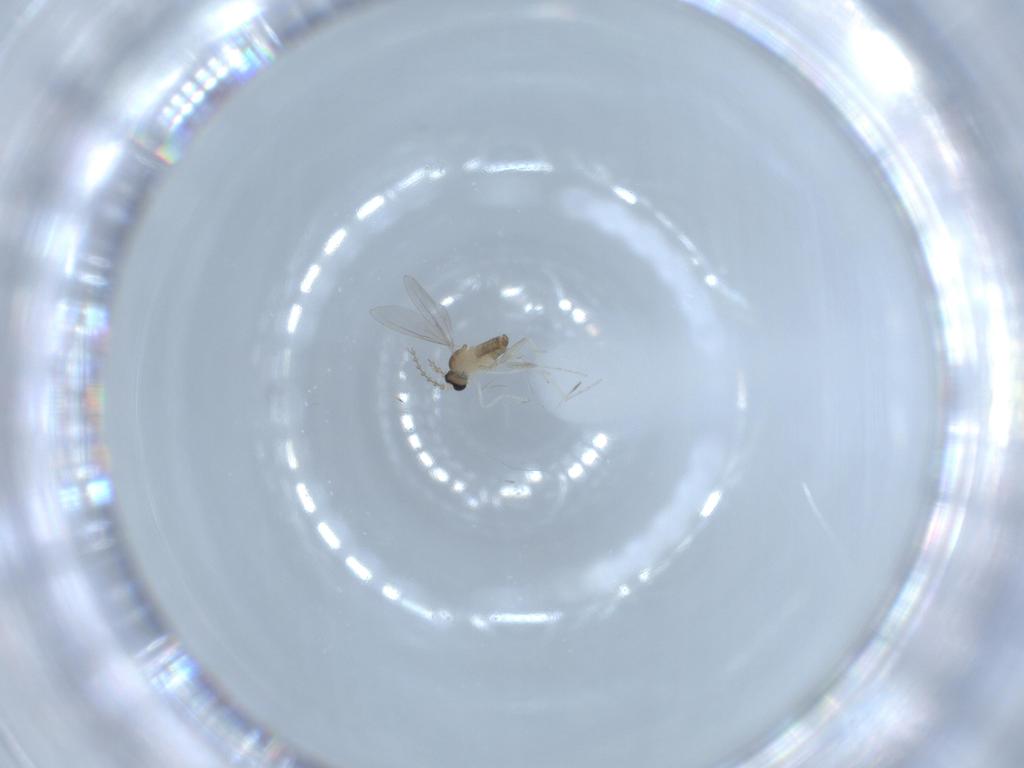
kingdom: Animalia
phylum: Arthropoda
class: Insecta
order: Diptera
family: Cecidomyiidae
